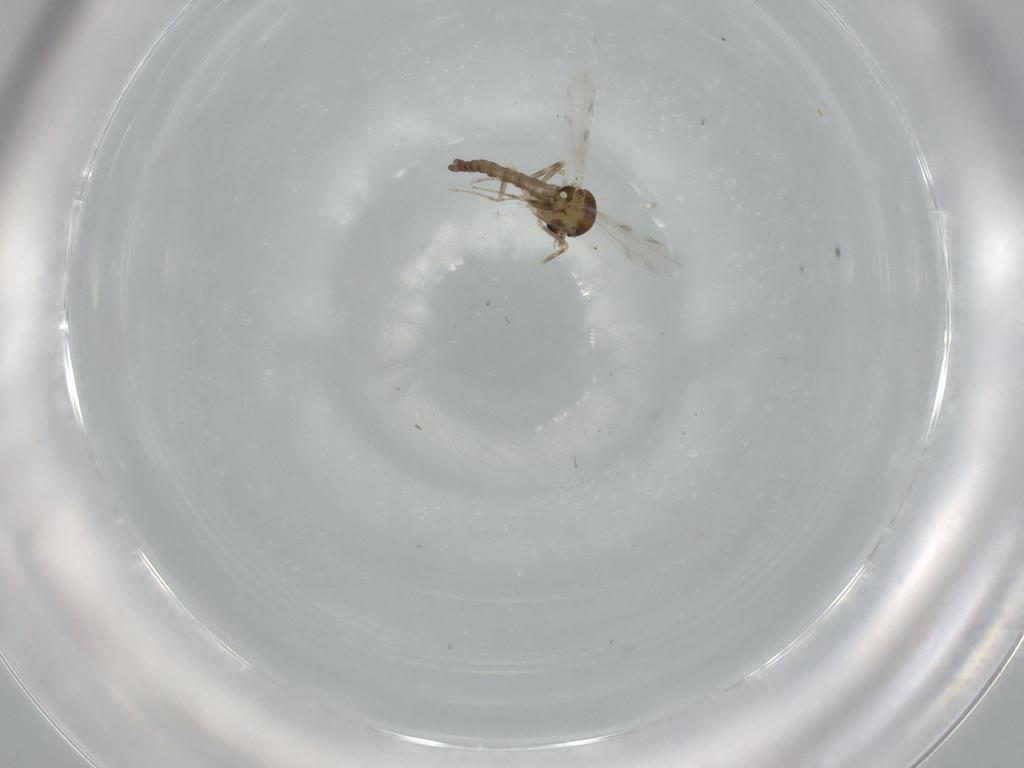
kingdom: Animalia
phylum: Arthropoda
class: Insecta
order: Diptera
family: Ceratopogonidae
